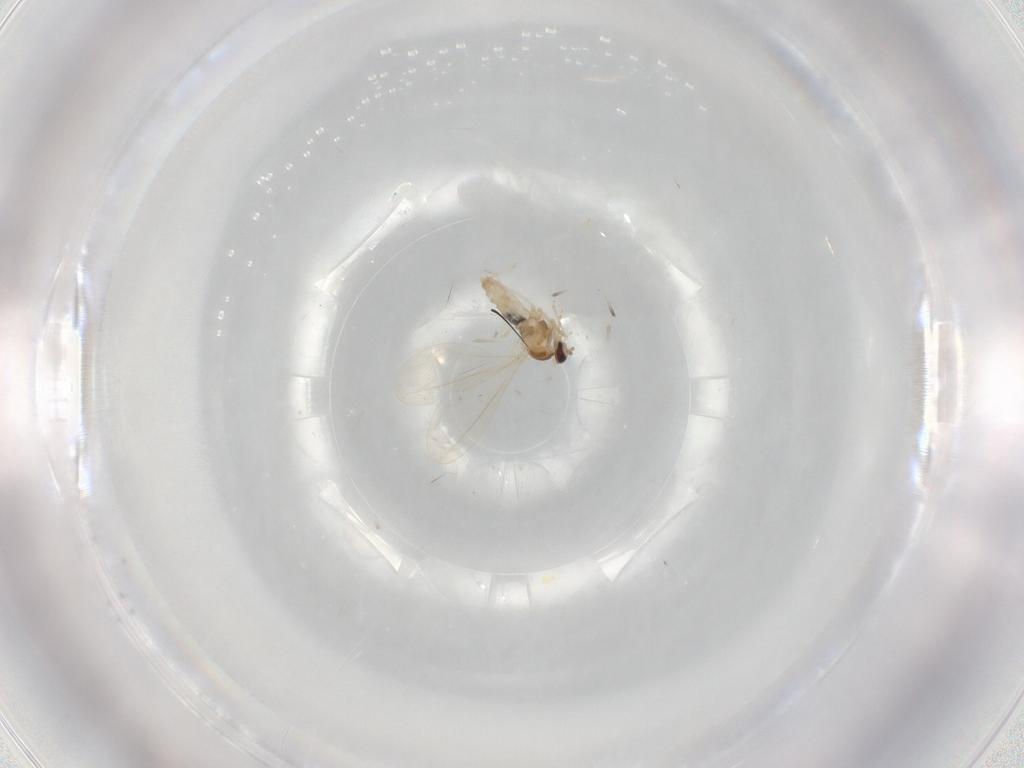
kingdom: Animalia
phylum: Arthropoda
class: Insecta
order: Diptera
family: Cecidomyiidae
